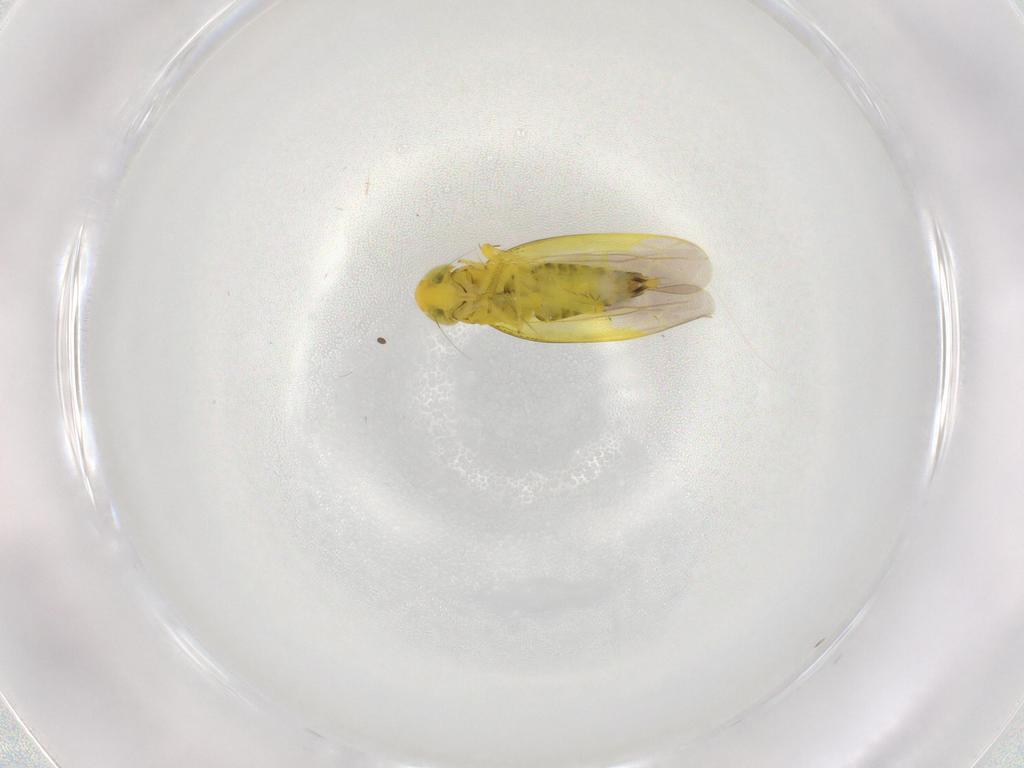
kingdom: Animalia
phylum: Arthropoda
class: Insecta
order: Hemiptera
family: Cicadellidae
